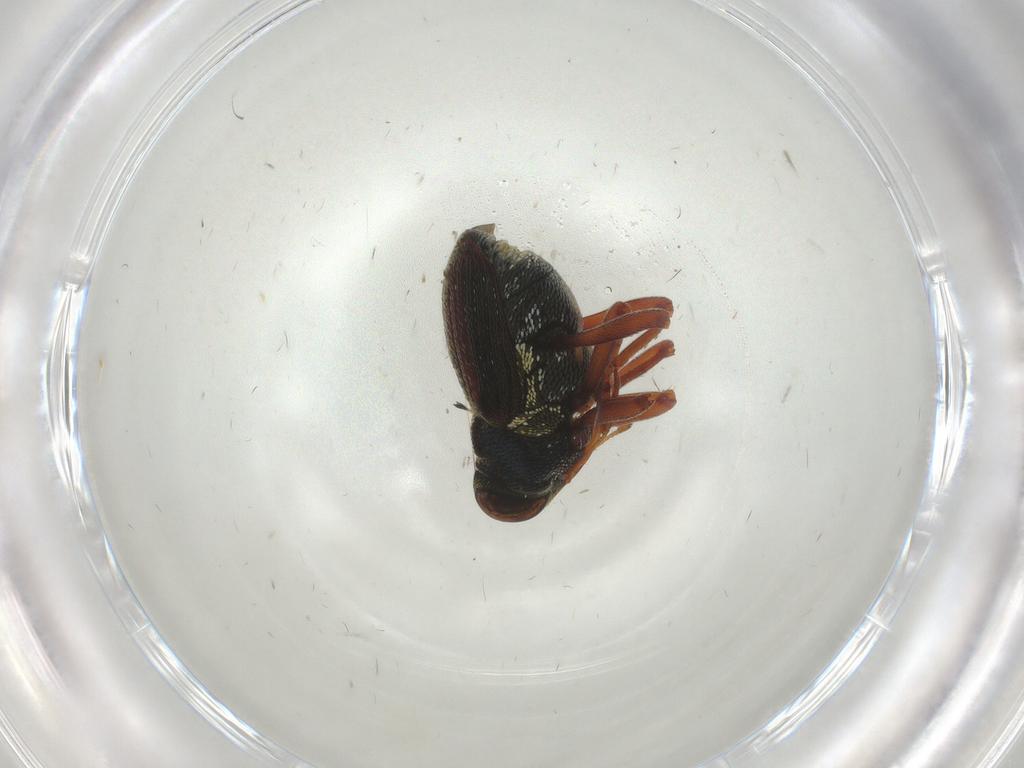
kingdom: Animalia
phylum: Arthropoda
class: Insecta
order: Coleoptera
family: Curculionidae
